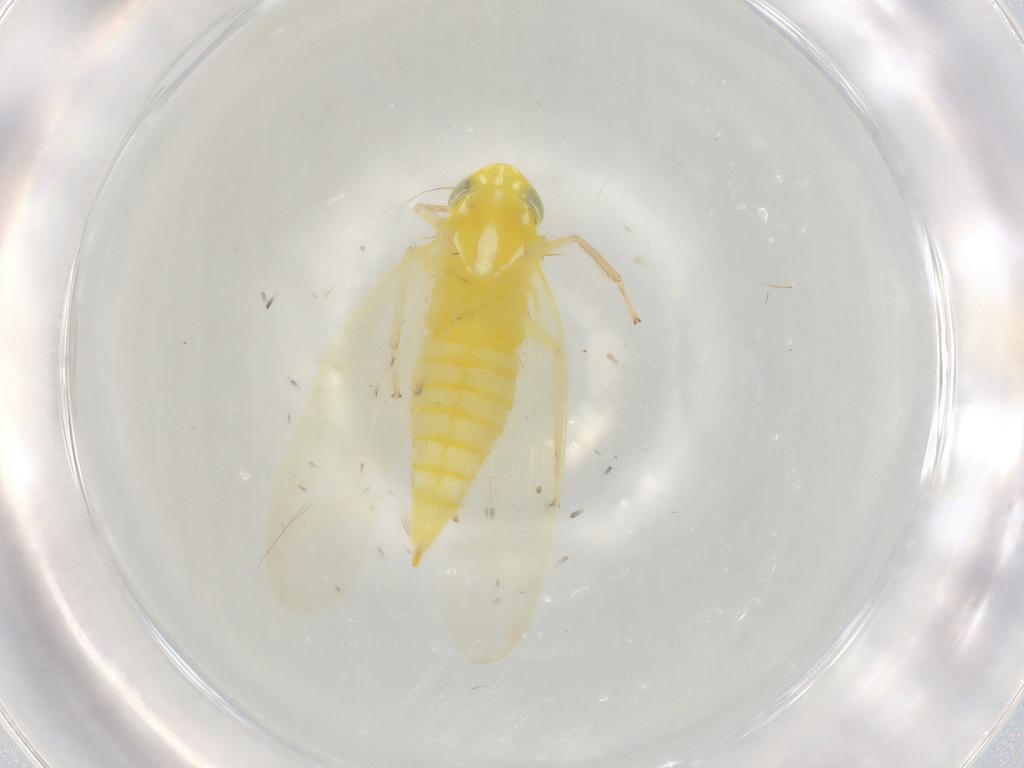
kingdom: Animalia
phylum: Arthropoda
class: Insecta
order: Hemiptera
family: Cicadellidae
